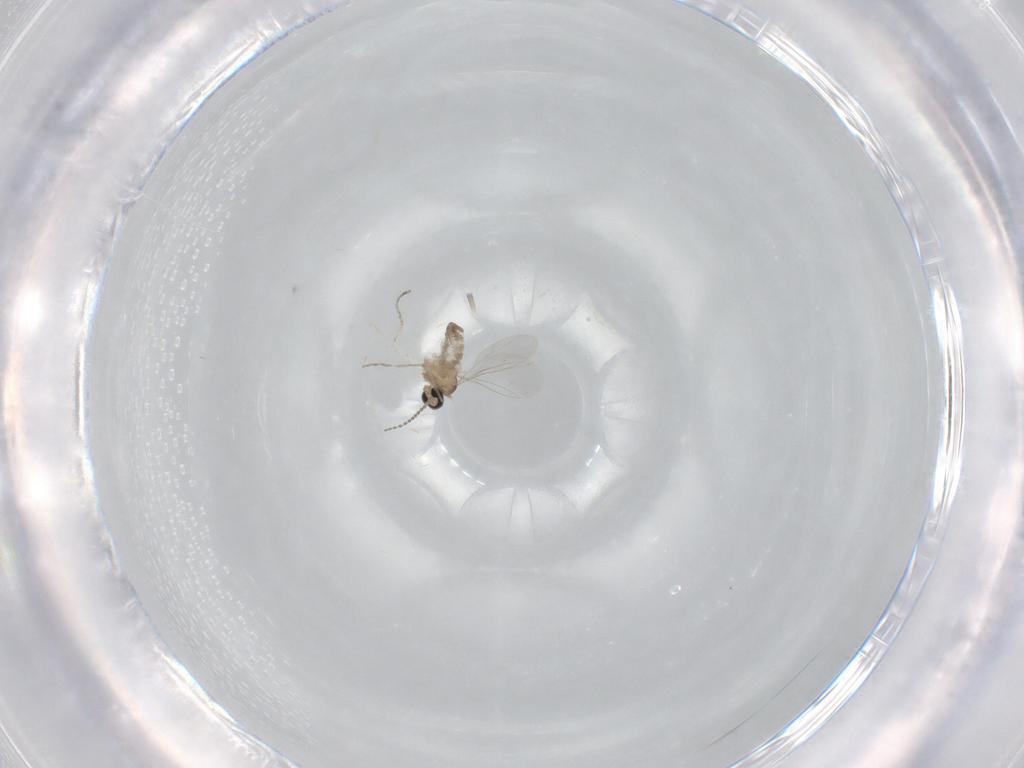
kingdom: Animalia
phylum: Arthropoda
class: Insecta
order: Diptera
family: Cecidomyiidae
